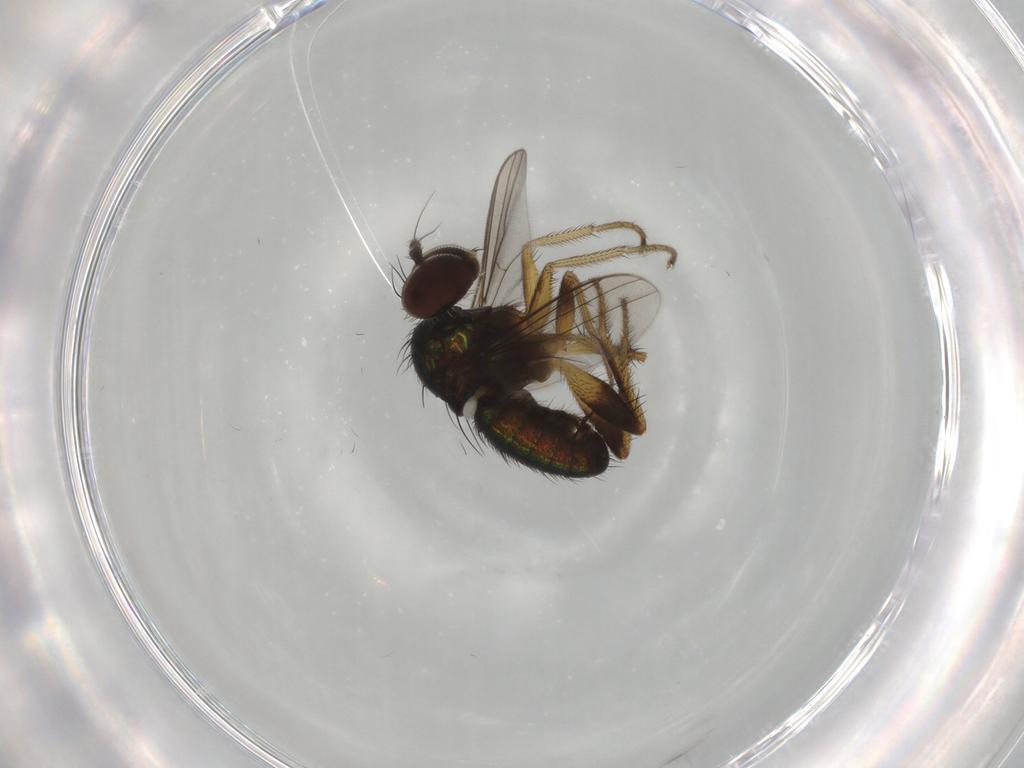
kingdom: Animalia
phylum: Arthropoda
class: Insecta
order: Diptera
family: Dolichopodidae
